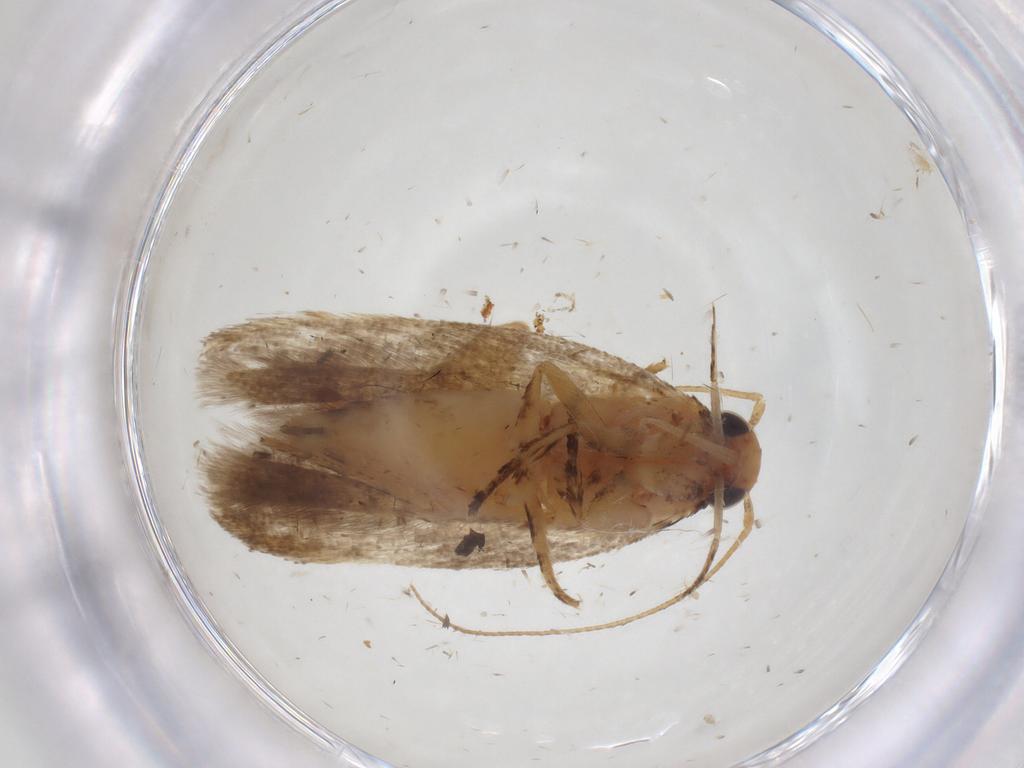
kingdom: Animalia
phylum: Arthropoda
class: Insecta
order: Lepidoptera
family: Gelechiidae
